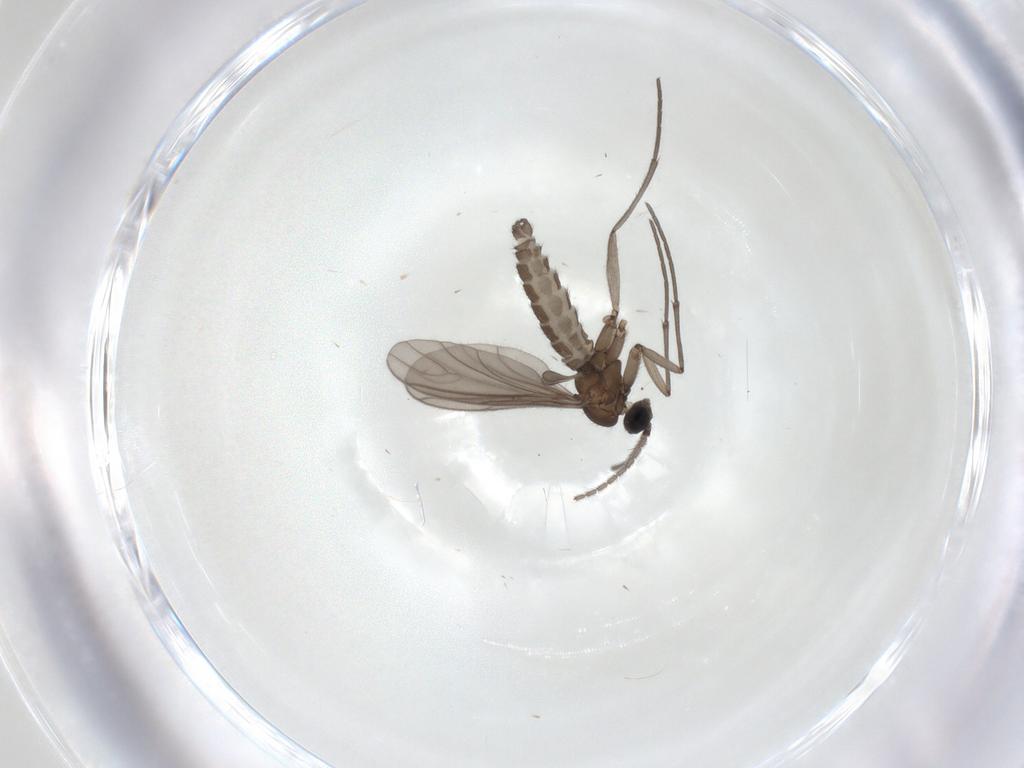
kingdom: Animalia
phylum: Arthropoda
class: Insecta
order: Diptera
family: Sciaridae
